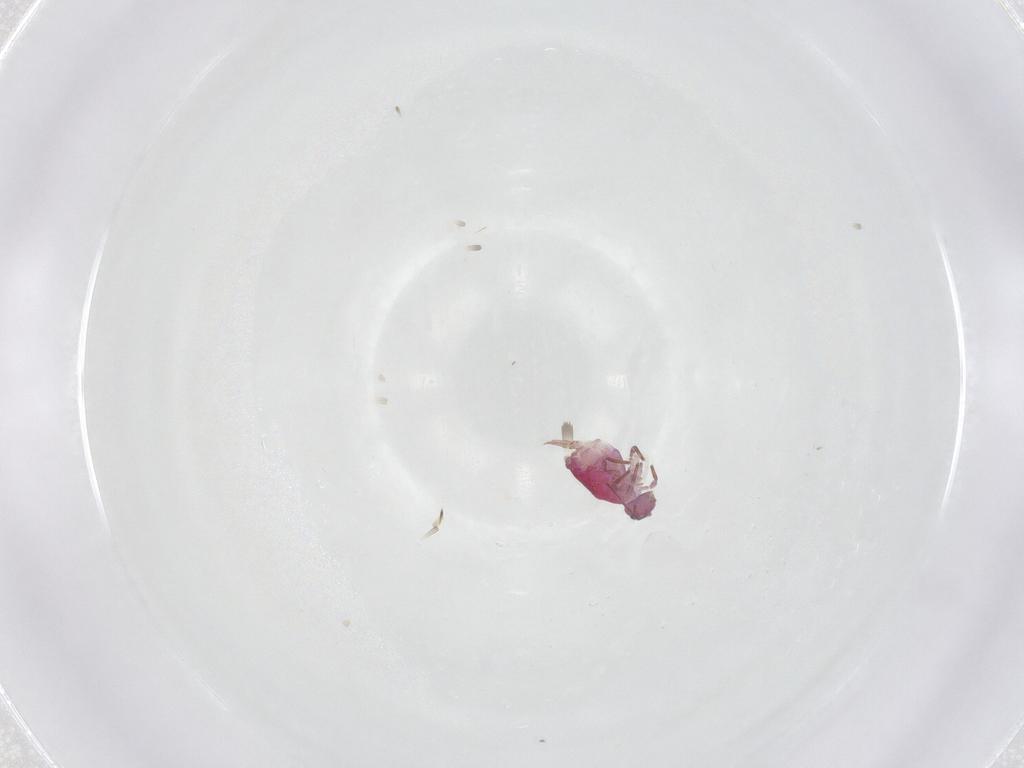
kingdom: Animalia
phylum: Arthropoda
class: Collembola
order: Symphypleona
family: Sminthuridae
